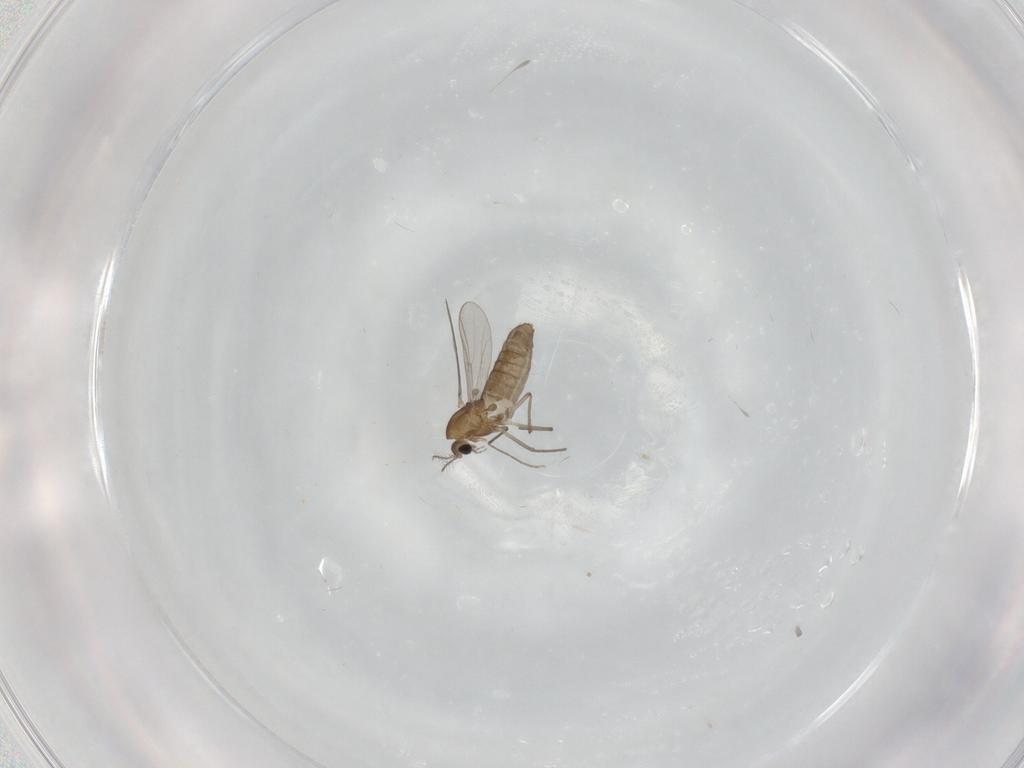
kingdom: Animalia
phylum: Arthropoda
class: Insecta
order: Diptera
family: Chironomidae
